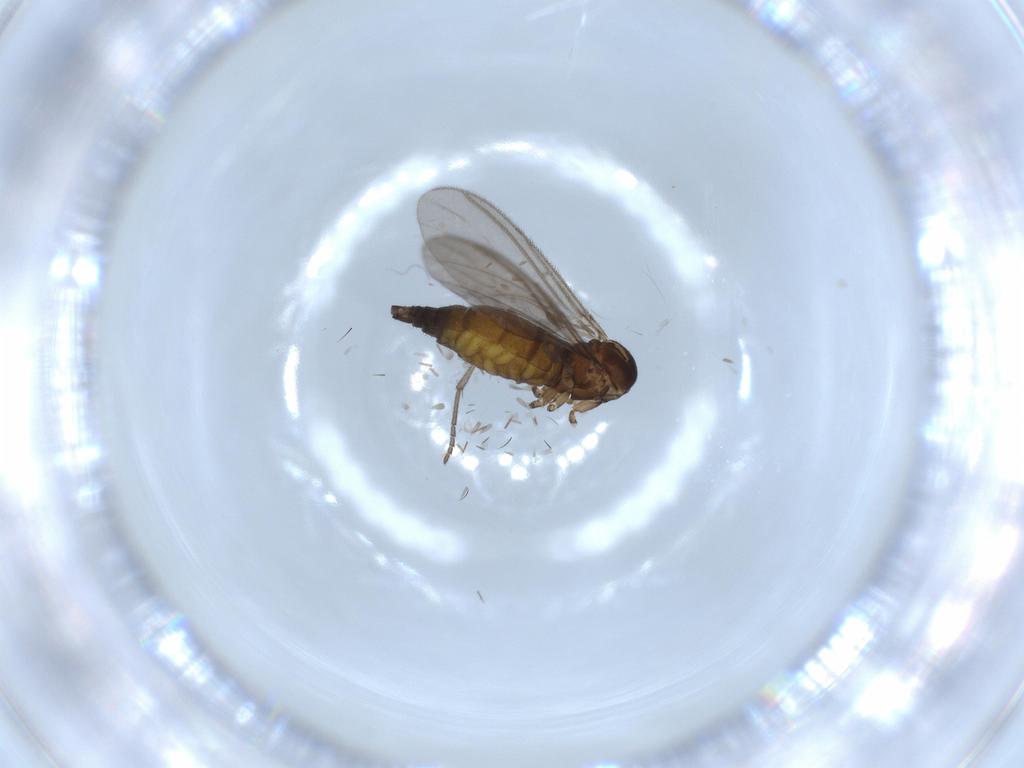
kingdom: Animalia
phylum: Arthropoda
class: Insecta
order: Diptera
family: Sciaridae
